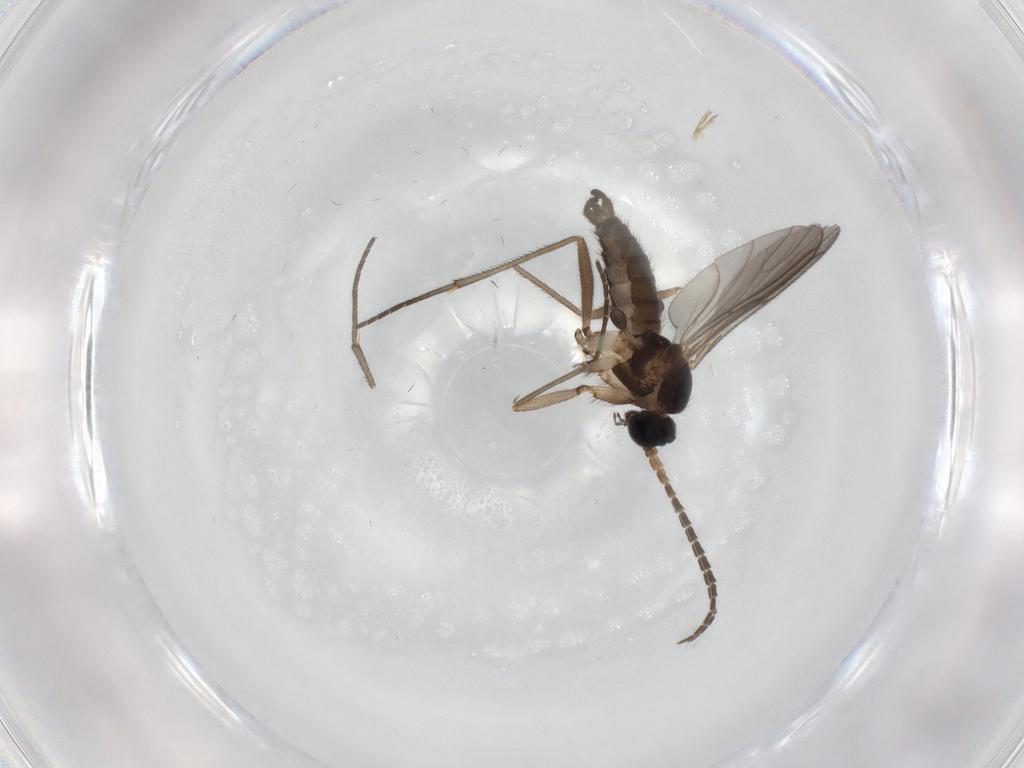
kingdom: Animalia
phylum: Arthropoda
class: Insecta
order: Diptera
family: Sciaridae
